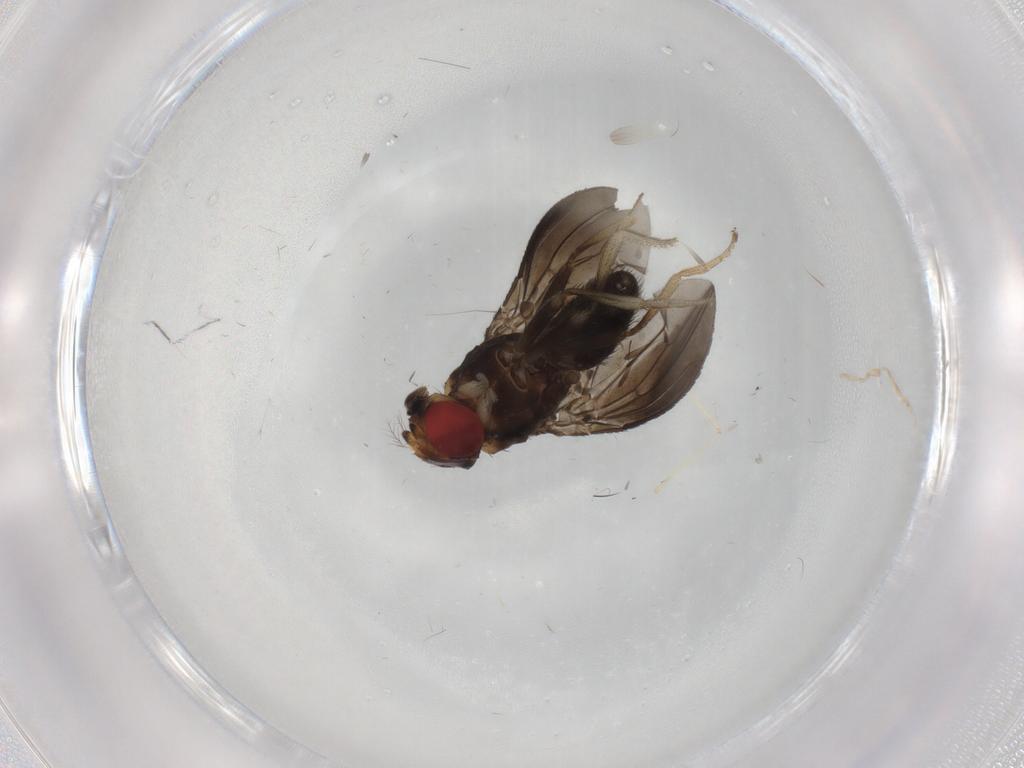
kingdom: Animalia
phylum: Arthropoda
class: Insecta
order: Diptera
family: Drosophilidae
